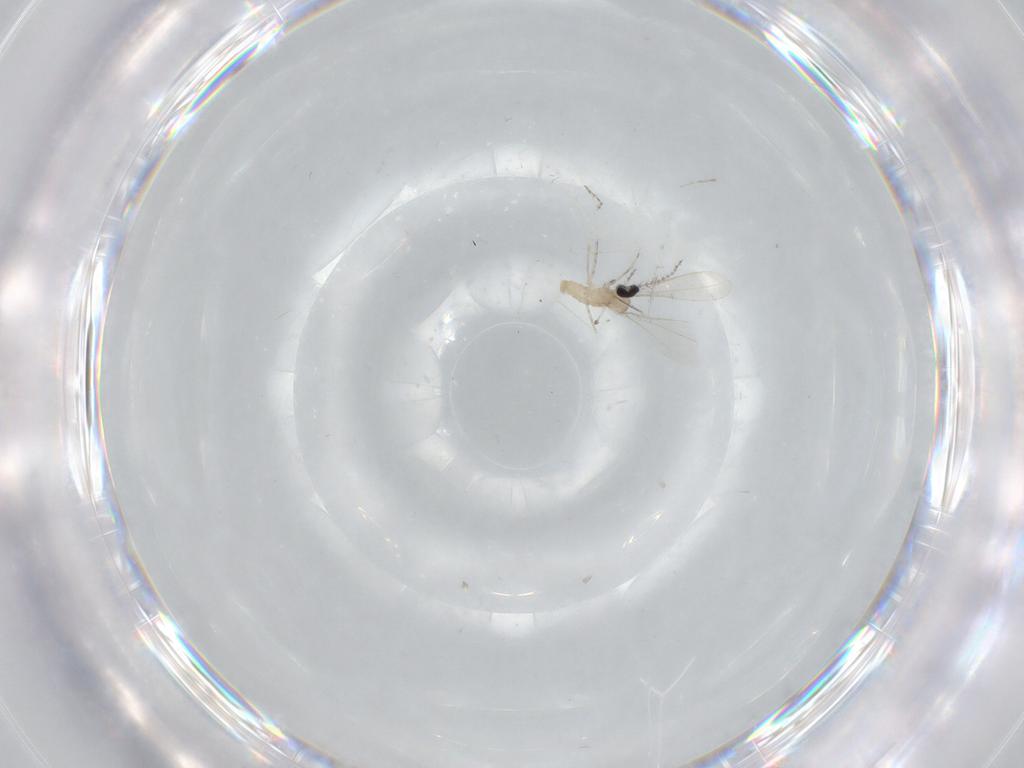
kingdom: Animalia
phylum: Arthropoda
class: Insecta
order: Diptera
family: Cecidomyiidae
